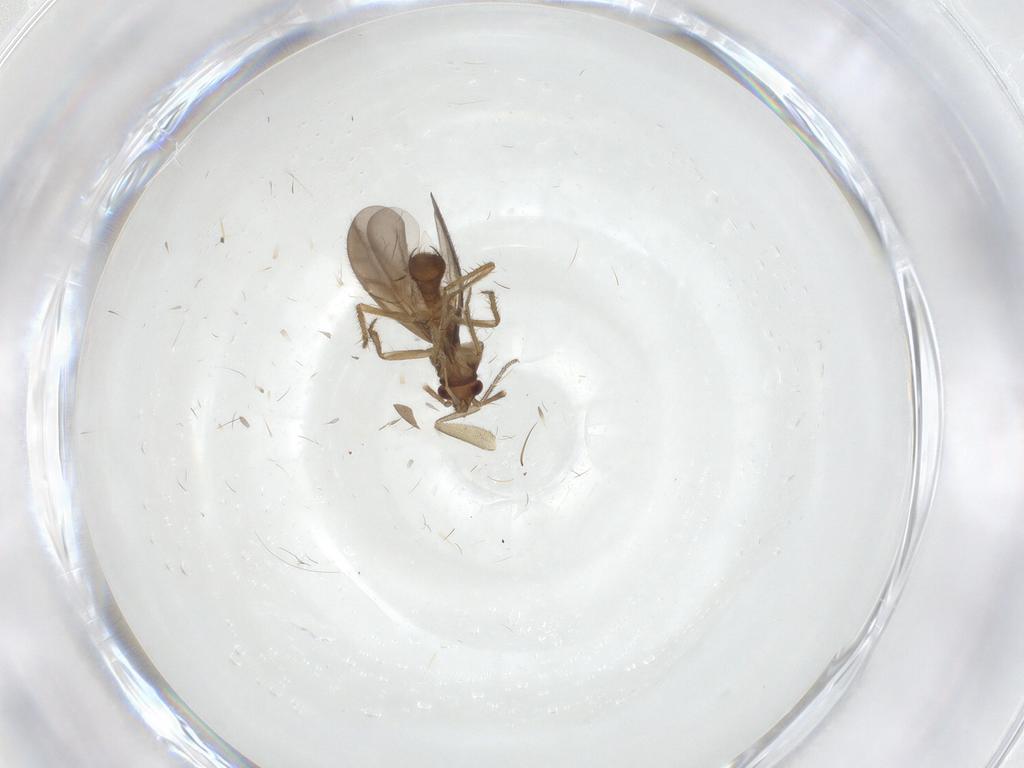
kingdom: Animalia
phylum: Arthropoda
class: Insecta
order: Hemiptera
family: Ceratocombidae
